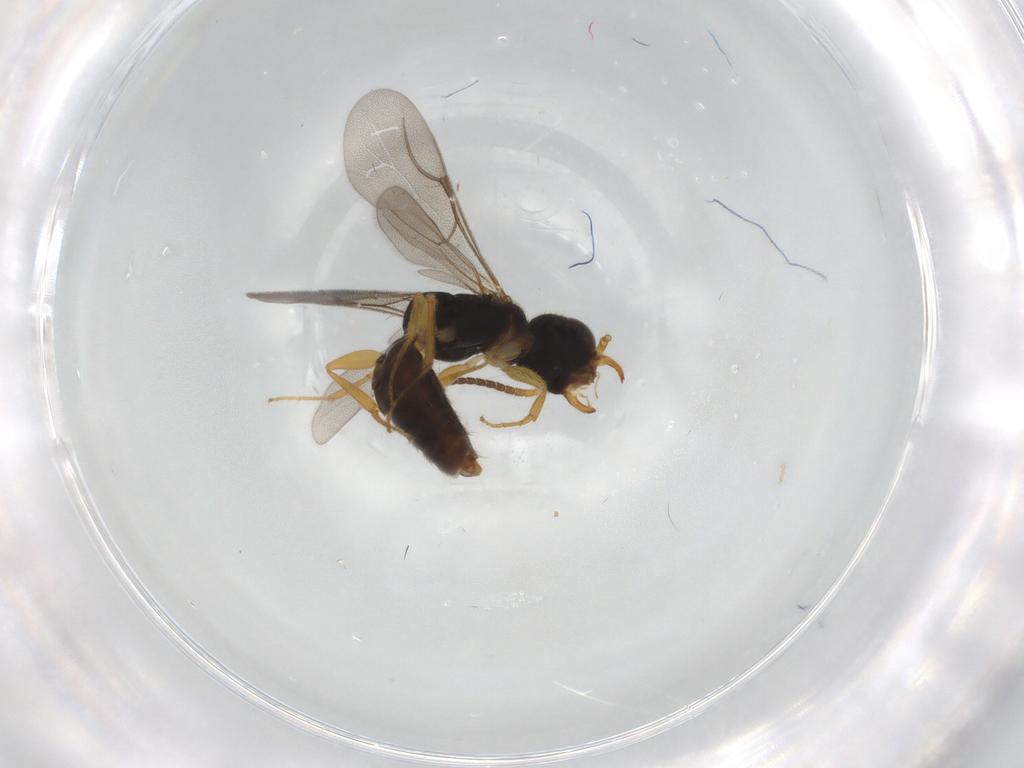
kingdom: Animalia
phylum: Arthropoda
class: Insecta
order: Hymenoptera
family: Bethylidae
